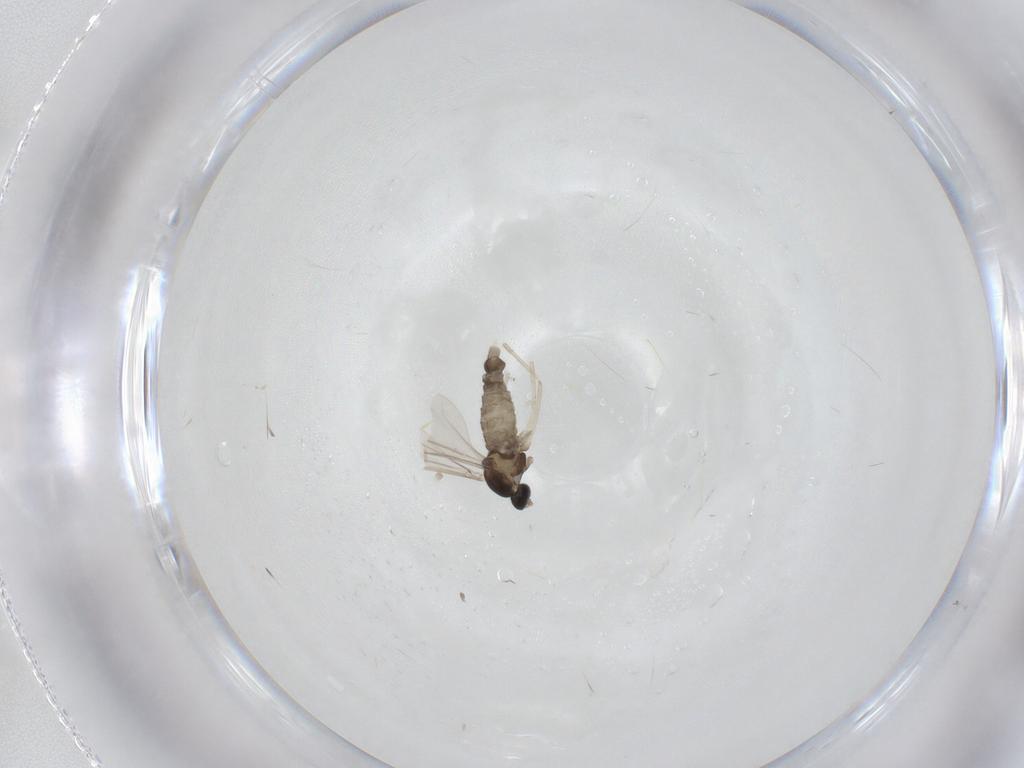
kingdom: Animalia
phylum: Arthropoda
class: Insecta
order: Diptera
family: Cecidomyiidae
